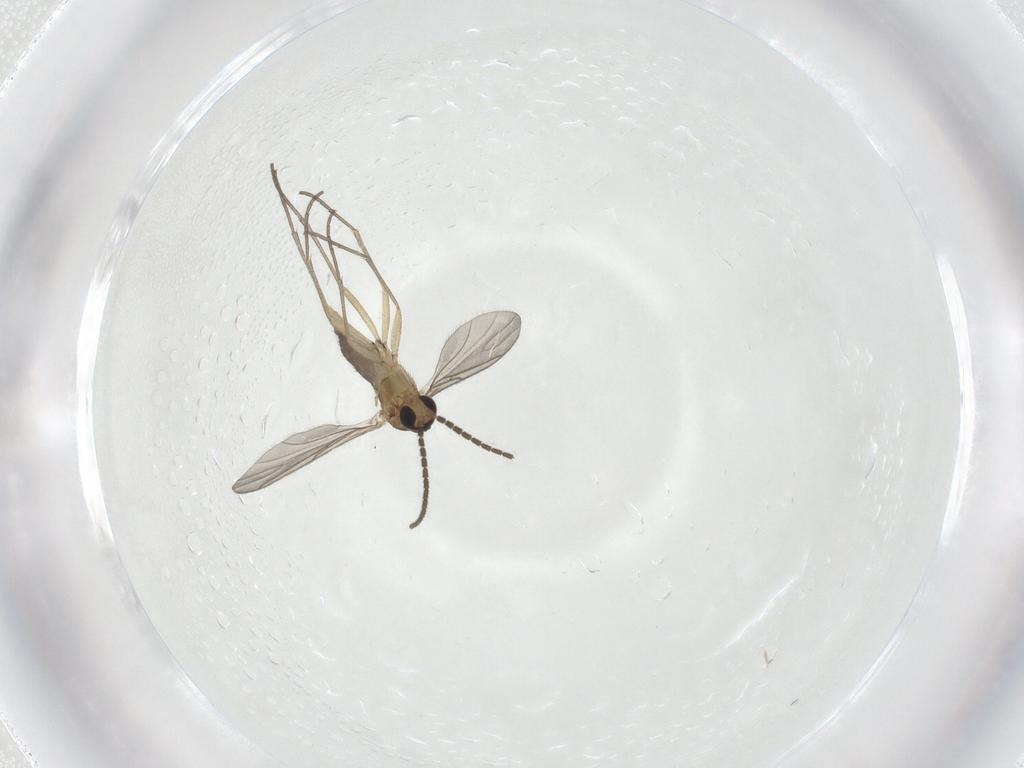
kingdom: Animalia
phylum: Arthropoda
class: Insecta
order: Diptera
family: Sciaridae
